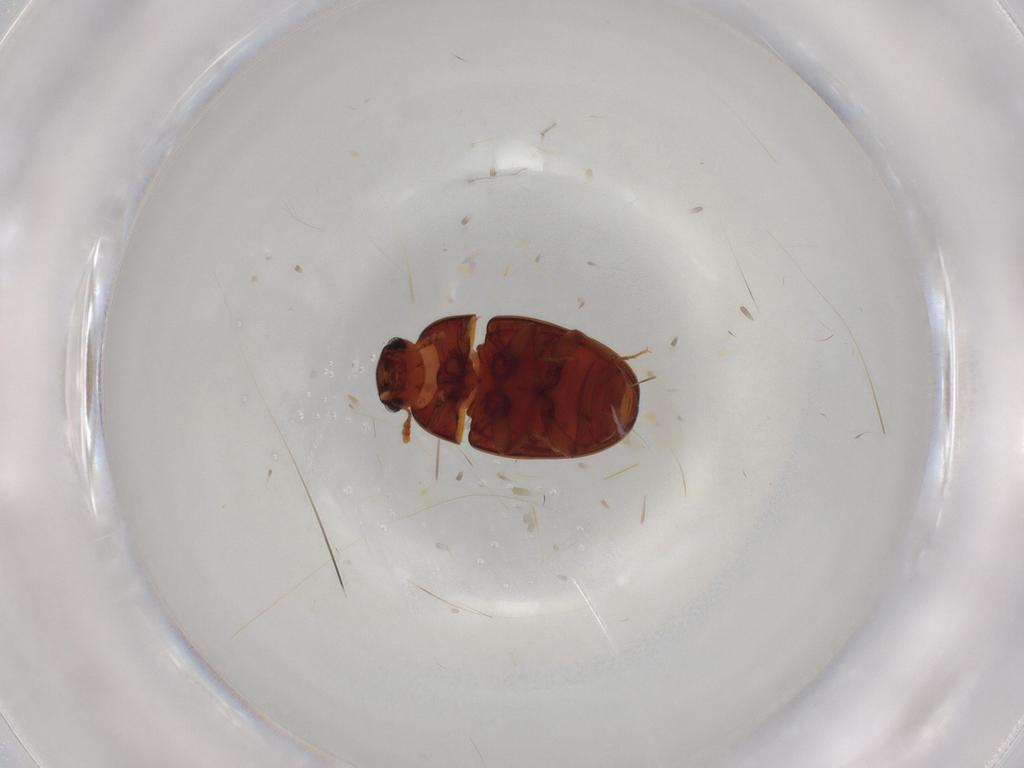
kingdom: Animalia
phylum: Arthropoda
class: Insecta
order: Coleoptera
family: Archeocrypticidae
